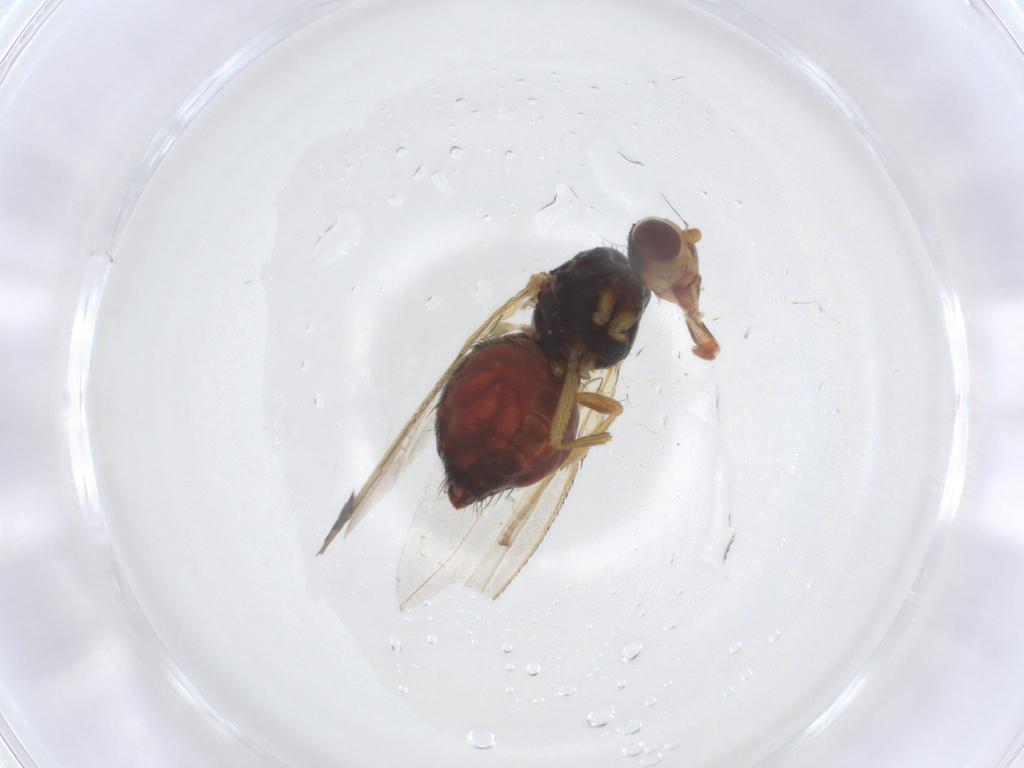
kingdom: Animalia
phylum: Arthropoda
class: Insecta
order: Diptera
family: Heleomyzidae
